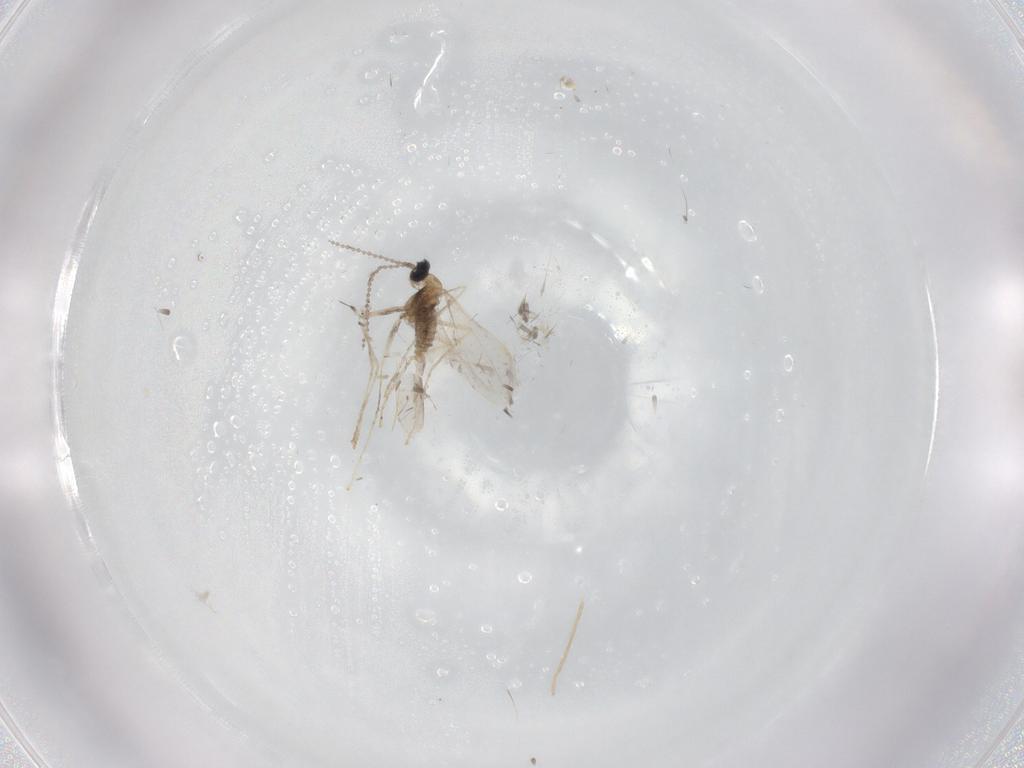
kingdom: Animalia
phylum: Arthropoda
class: Insecta
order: Diptera
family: Cecidomyiidae
